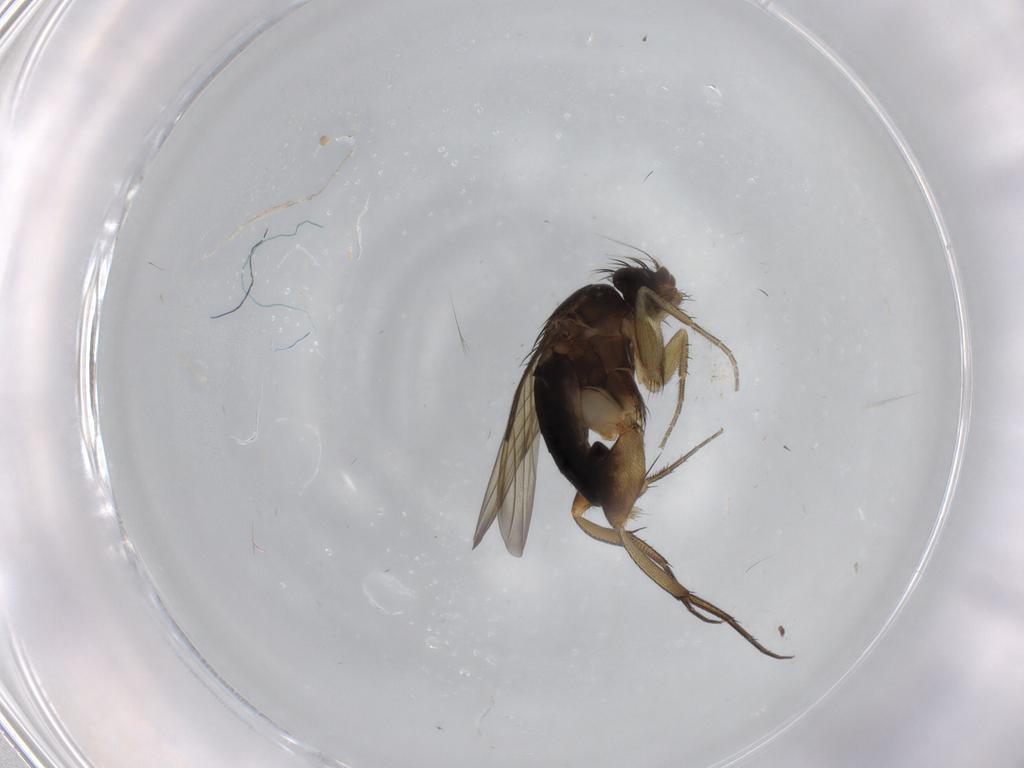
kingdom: Animalia
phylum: Arthropoda
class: Insecta
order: Diptera
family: Phoridae
